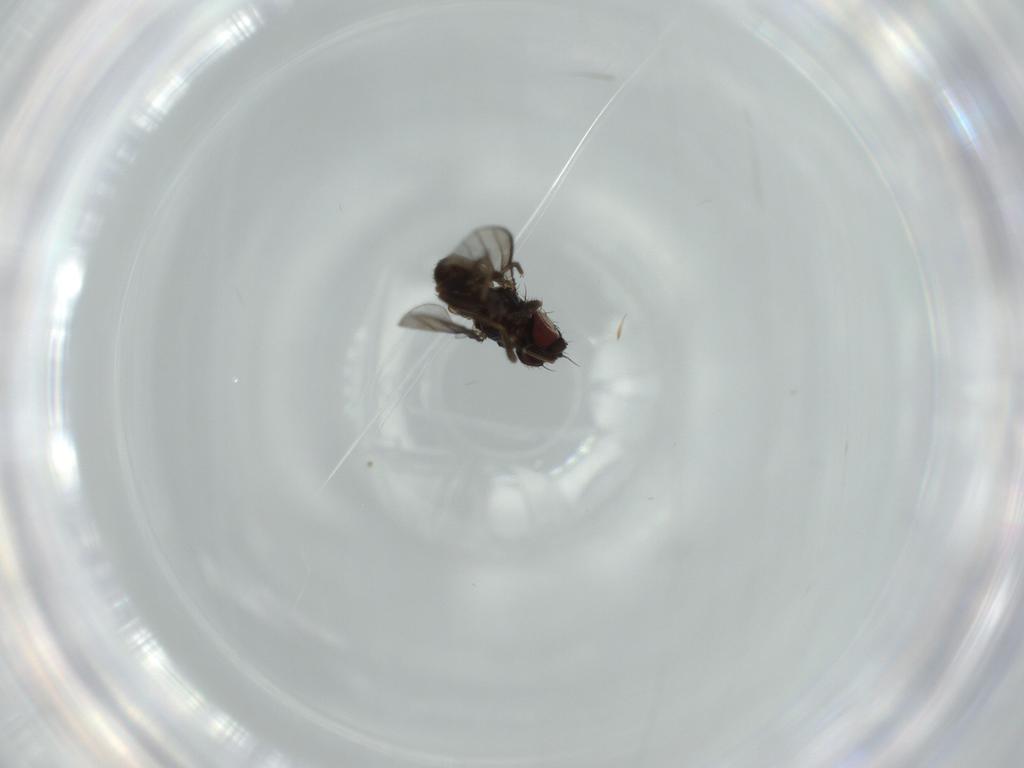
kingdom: Animalia
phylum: Arthropoda
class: Insecta
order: Diptera
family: Milichiidae
